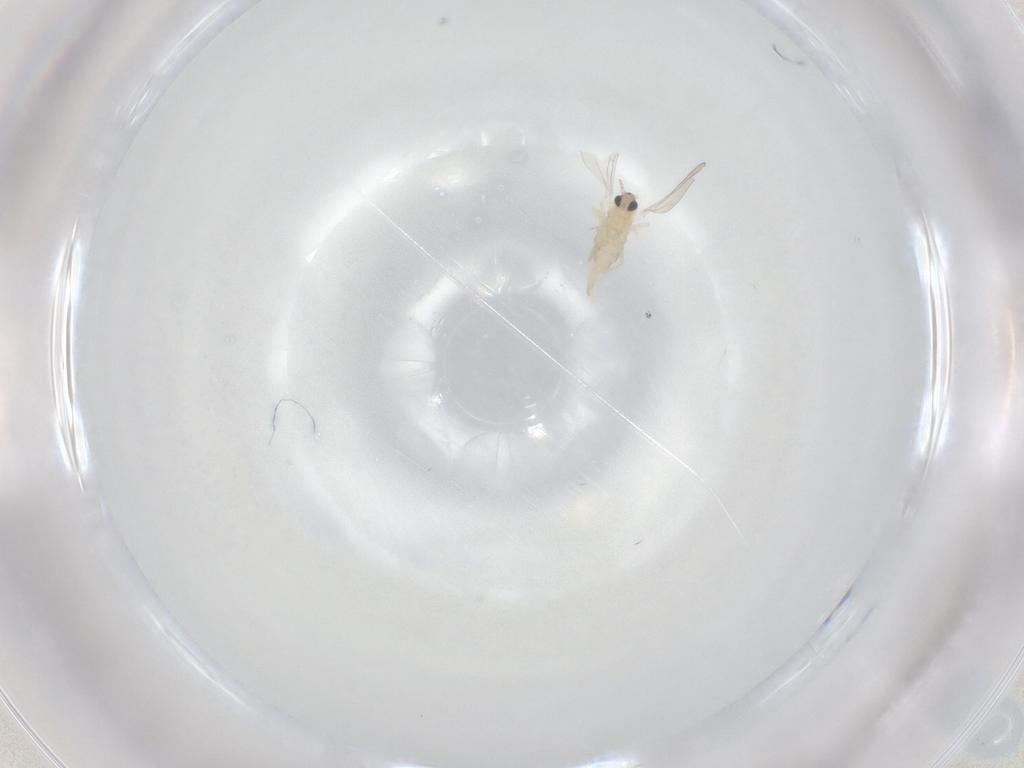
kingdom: Animalia
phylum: Arthropoda
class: Insecta
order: Diptera
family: Cecidomyiidae
